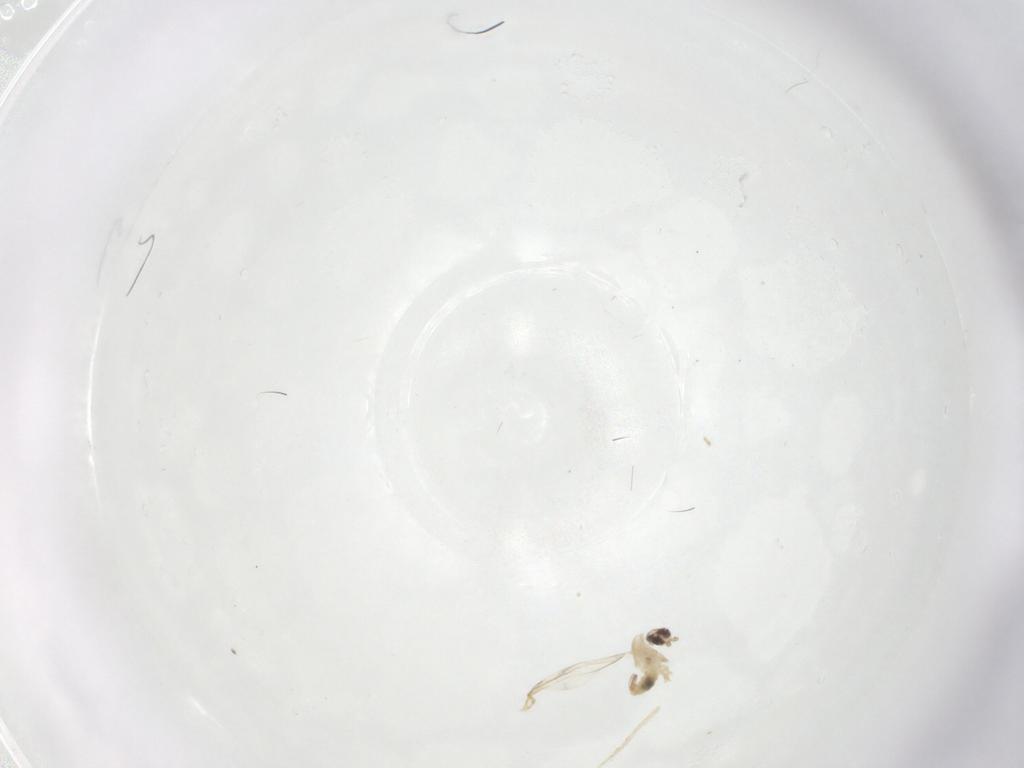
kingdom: Animalia
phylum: Arthropoda
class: Insecta
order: Diptera
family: Cecidomyiidae
